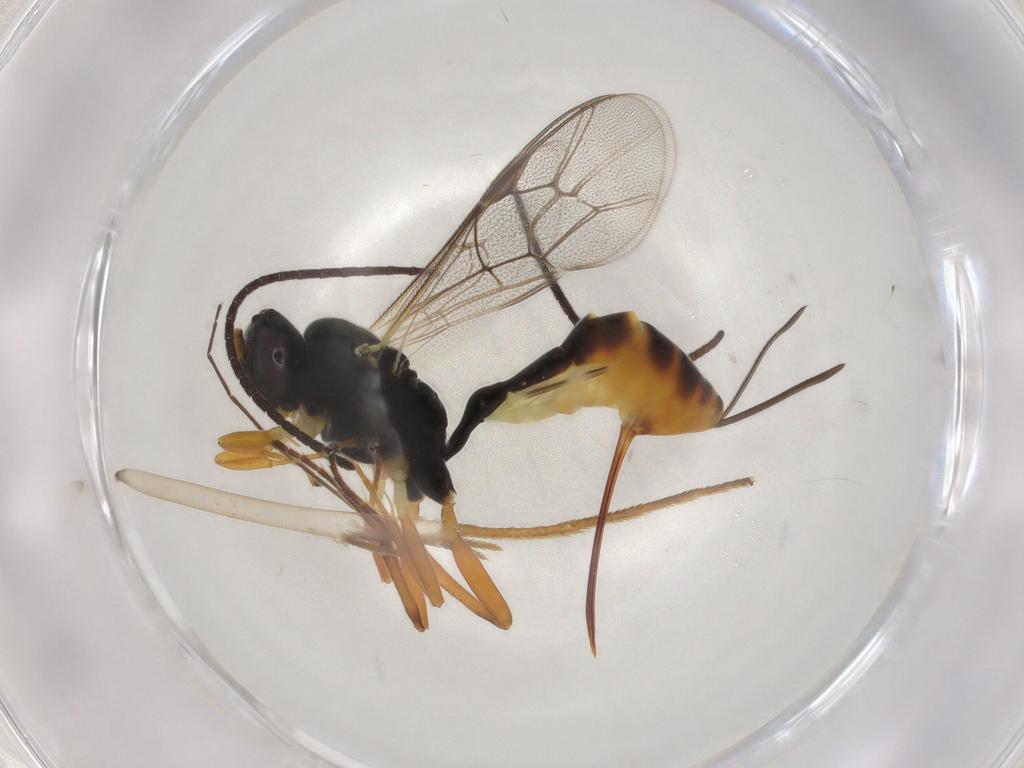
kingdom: Animalia
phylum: Arthropoda
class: Insecta
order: Hymenoptera
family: Ichneumonidae
